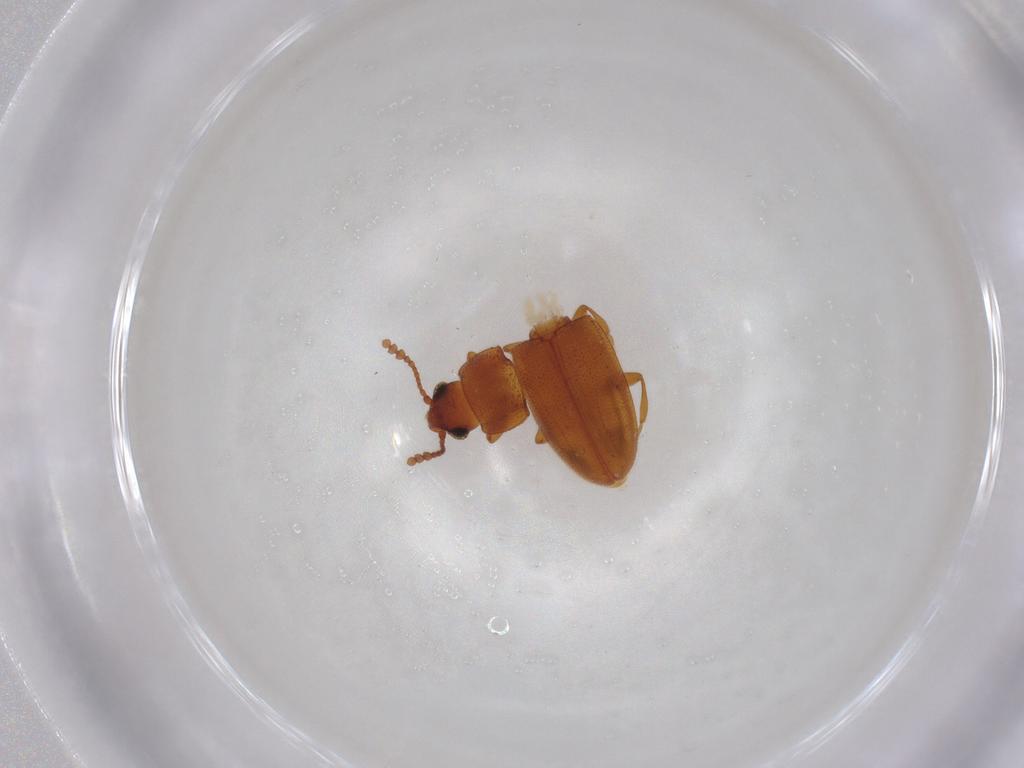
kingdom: Animalia
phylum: Arthropoda
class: Insecta
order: Coleoptera
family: Erotylidae
